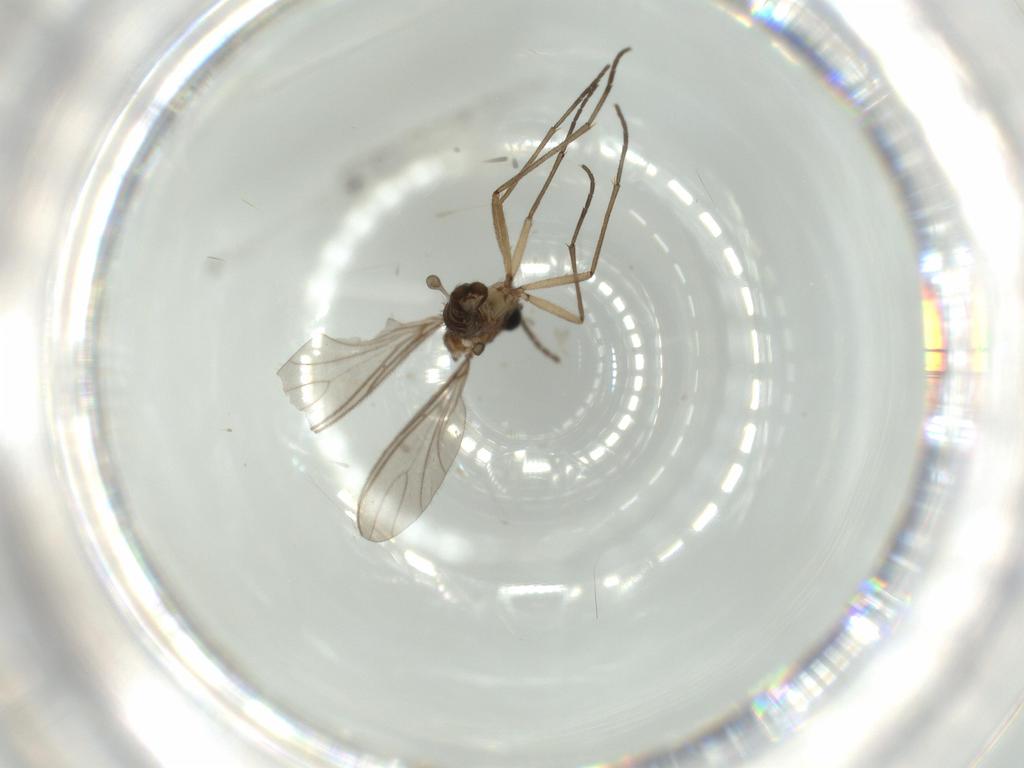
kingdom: Animalia
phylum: Arthropoda
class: Insecta
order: Diptera
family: Sciaridae
